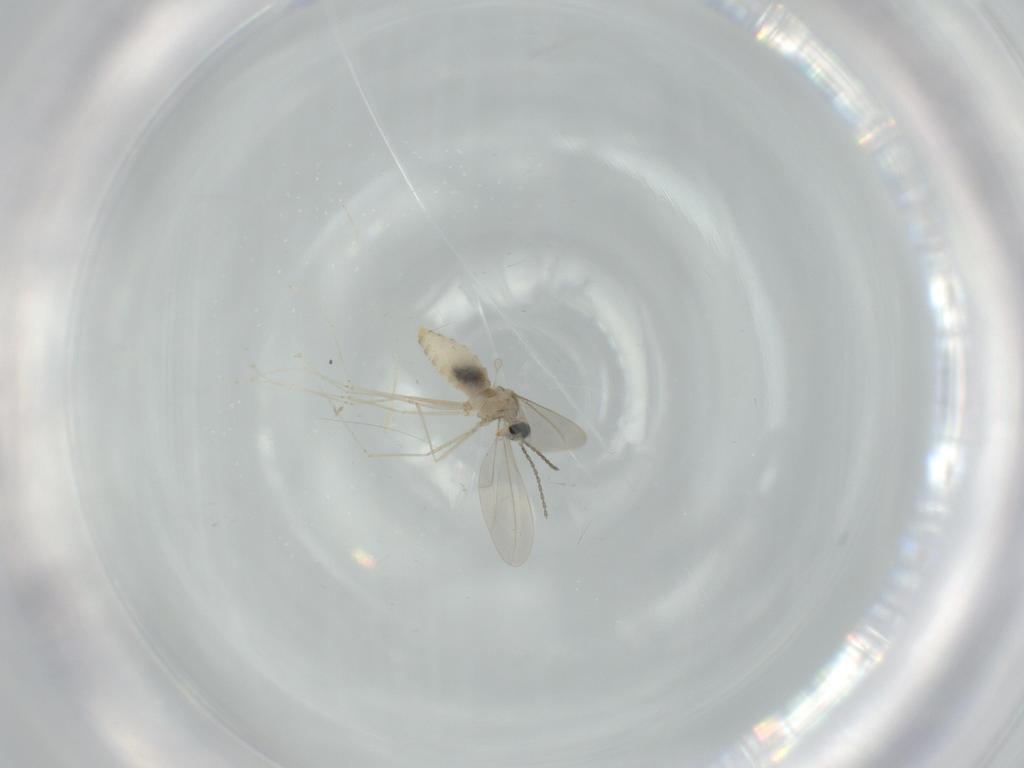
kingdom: Animalia
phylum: Arthropoda
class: Insecta
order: Diptera
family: Cecidomyiidae
